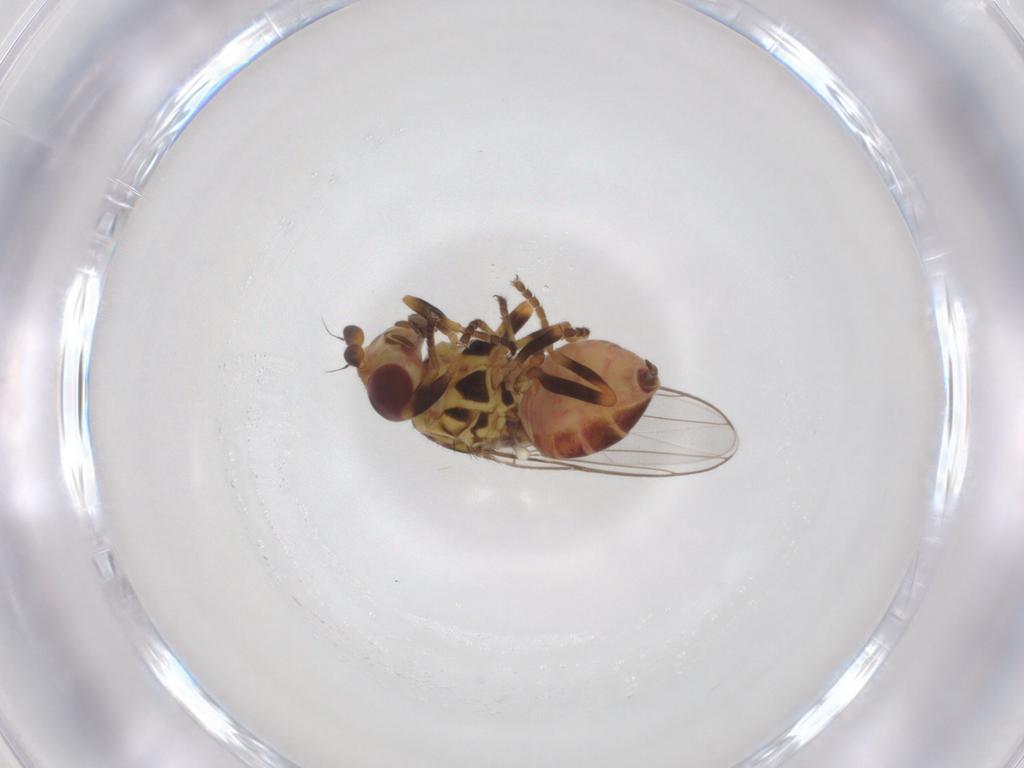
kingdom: Animalia
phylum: Arthropoda
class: Insecta
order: Diptera
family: Chloropidae
